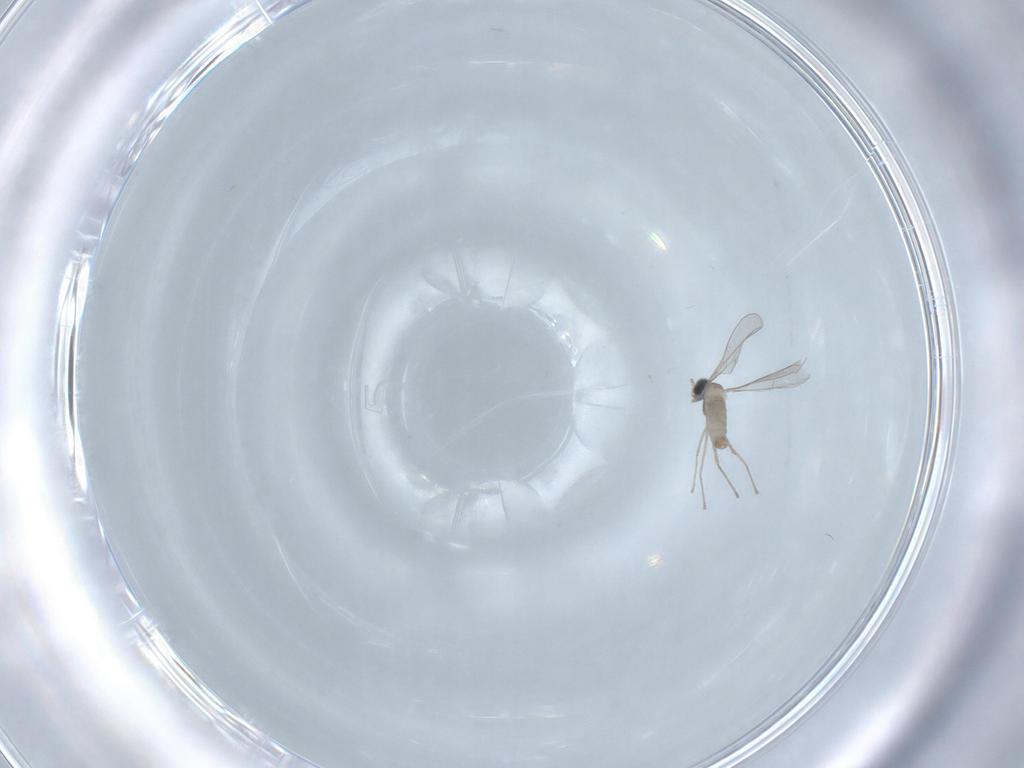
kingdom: Animalia
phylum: Arthropoda
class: Insecta
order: Diptera
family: Cecidomyiidae
